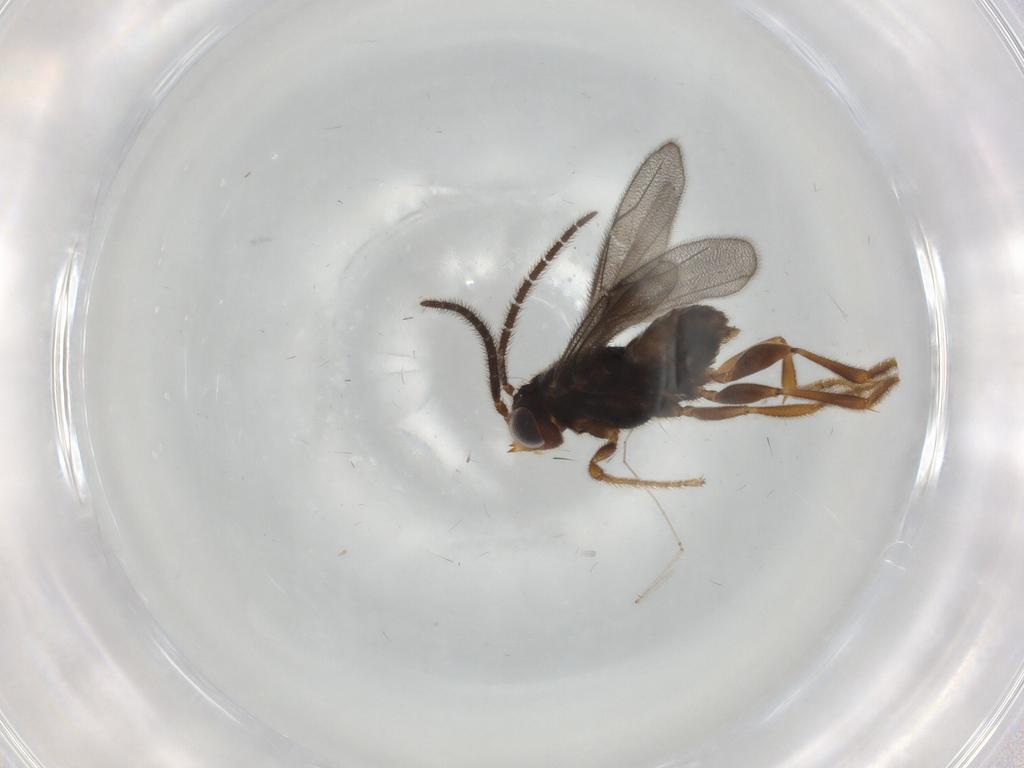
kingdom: Animalia
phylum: Arthropoda
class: Insecta
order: Hymenoptera
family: Dryinidae
